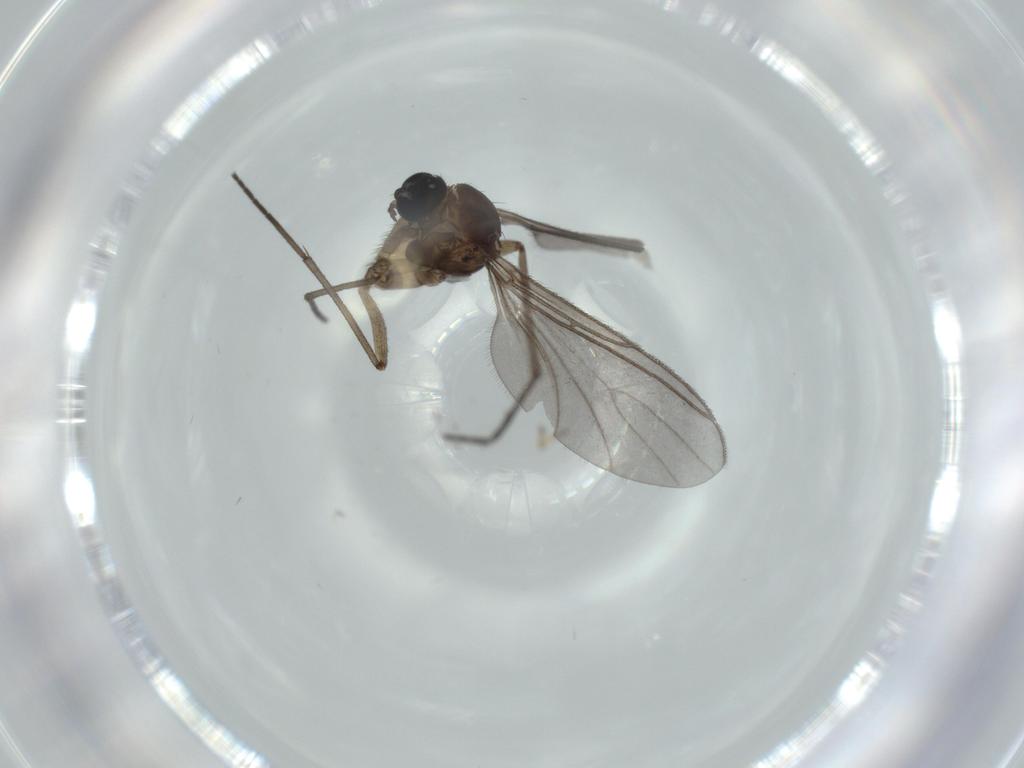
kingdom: Animalia
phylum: Arthropoda
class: Insecta
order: Diptera
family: Sciaridae
